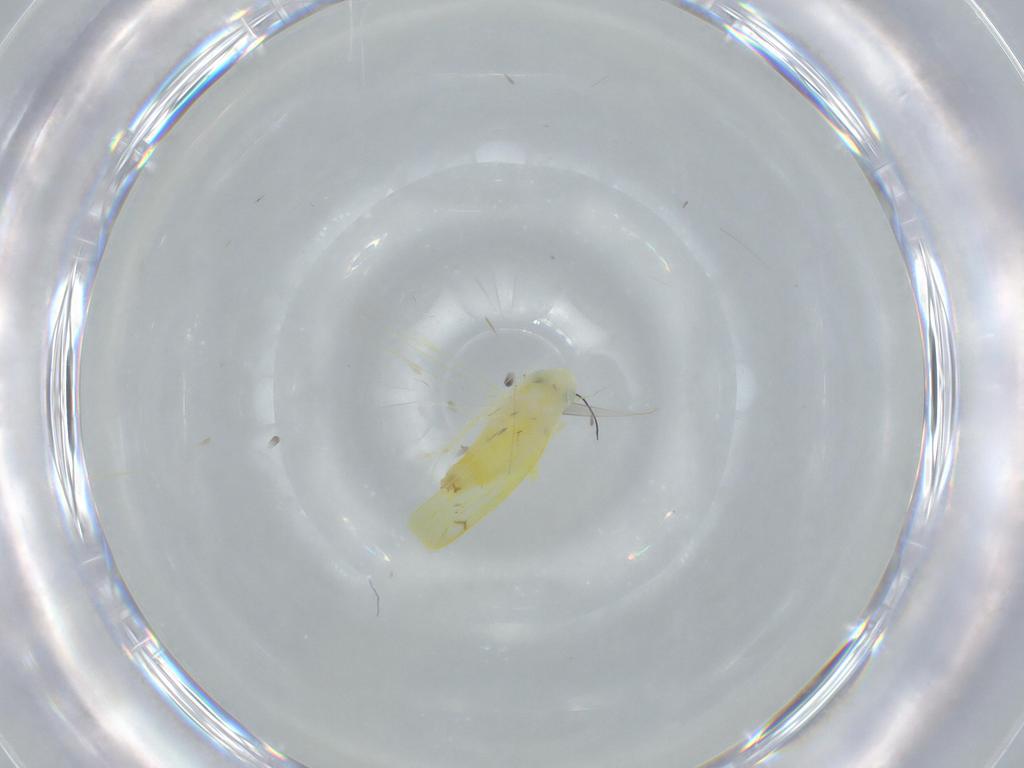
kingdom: Animalia
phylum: Arthropoda
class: Insecta
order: Hemiptera
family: Cicadellidae
